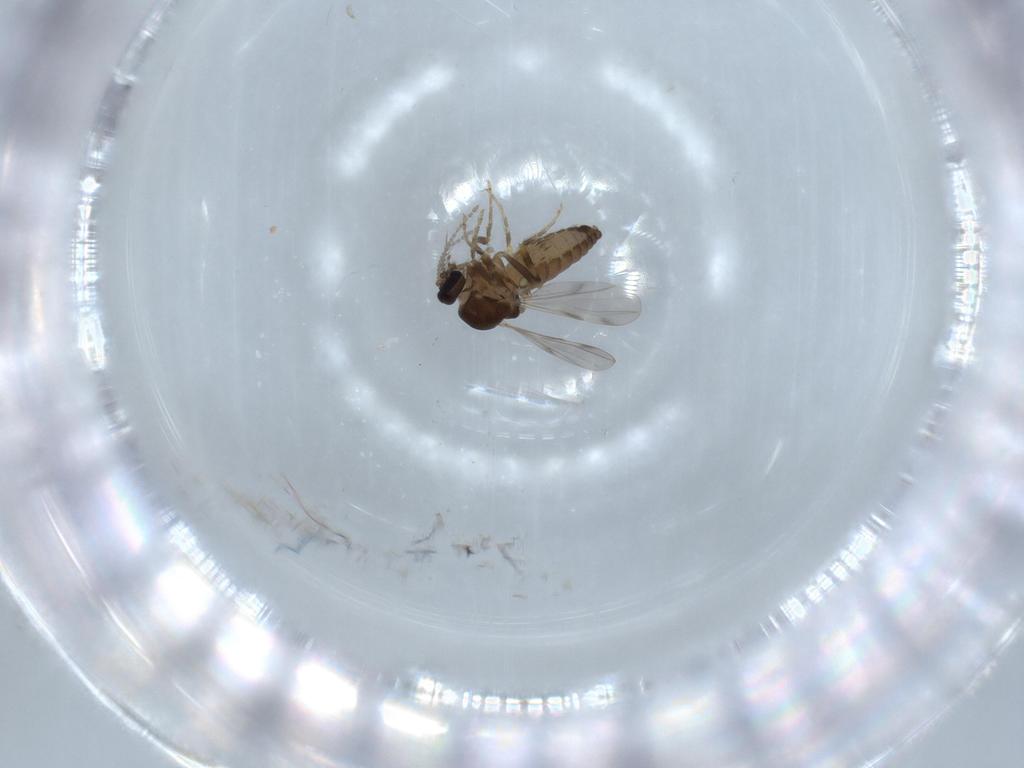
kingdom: Animalia
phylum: Arthropoda
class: Insecta
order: Diptera
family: Ceratopogonidae
